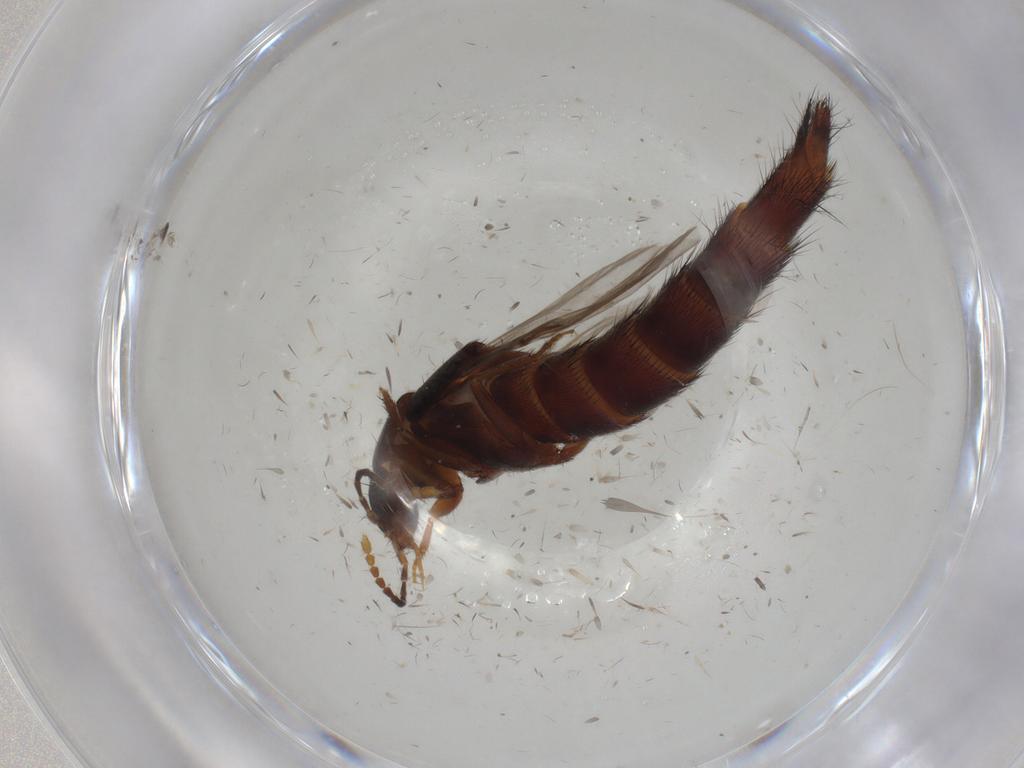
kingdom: Animalia
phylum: Arthropoda
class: Insecta
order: Coleoptera
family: Staphylinidae
